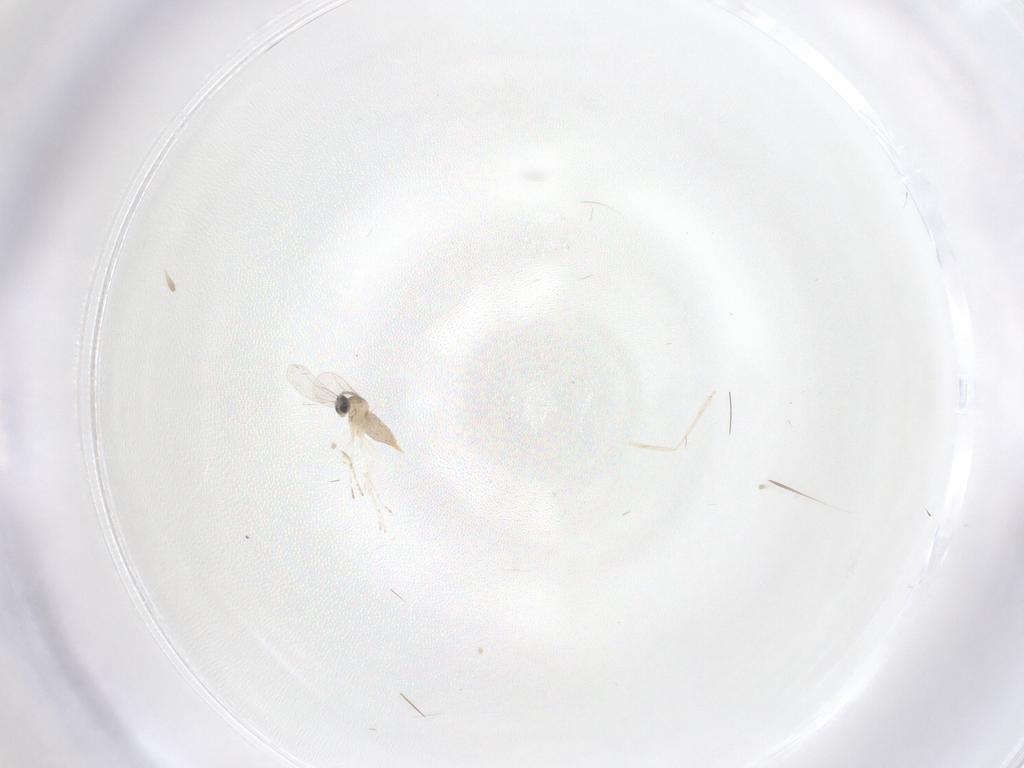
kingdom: Animalia
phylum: Arthropoda
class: Insecta
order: Diptera
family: Cecidomyiidae
